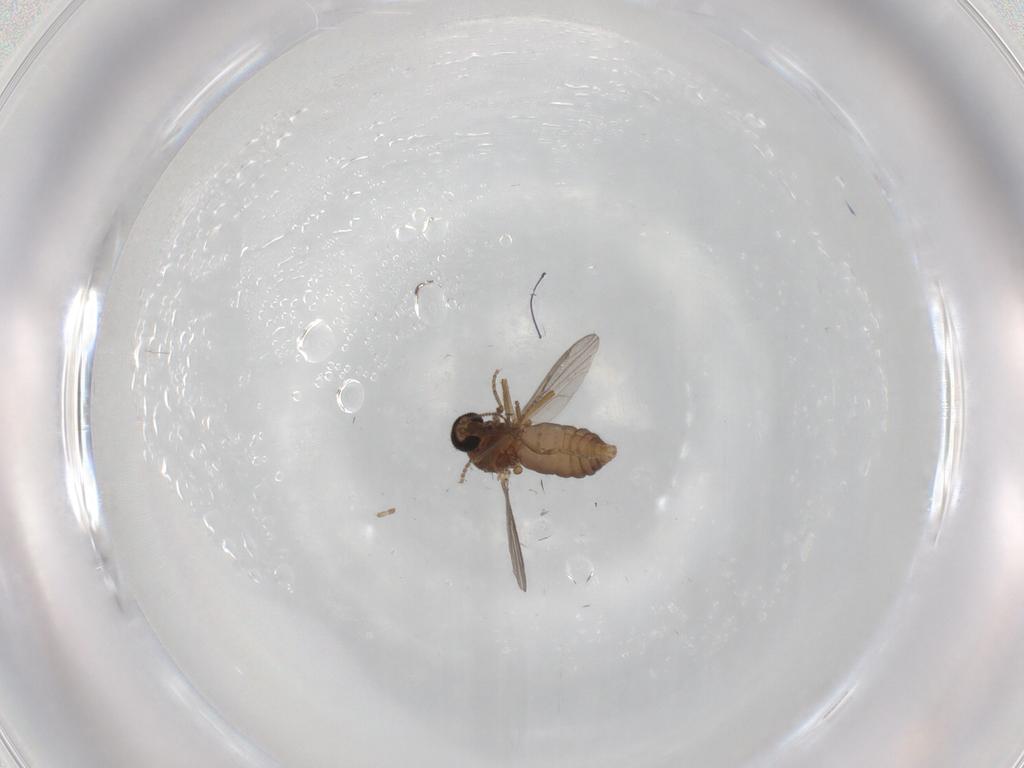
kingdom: Animalia
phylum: Arthropoda
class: Insecta
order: Diptera
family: Ceratopogonidae
